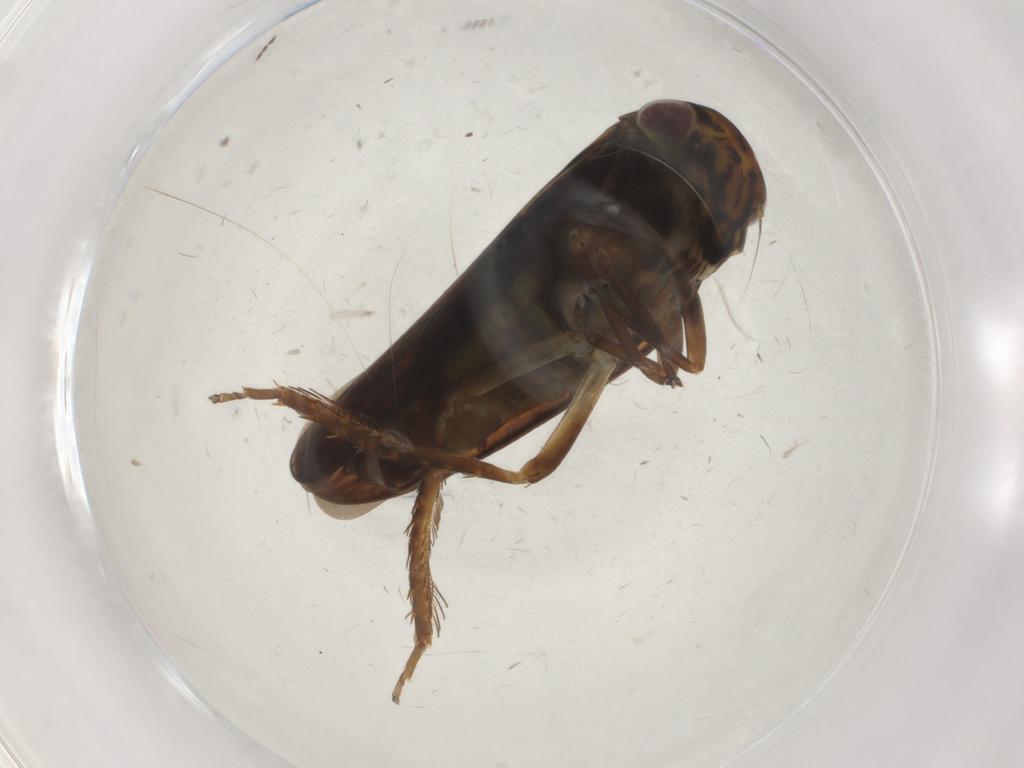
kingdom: Animalia
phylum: Arthropoda
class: Insecta
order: Hemiptera
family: Cicadellidae
